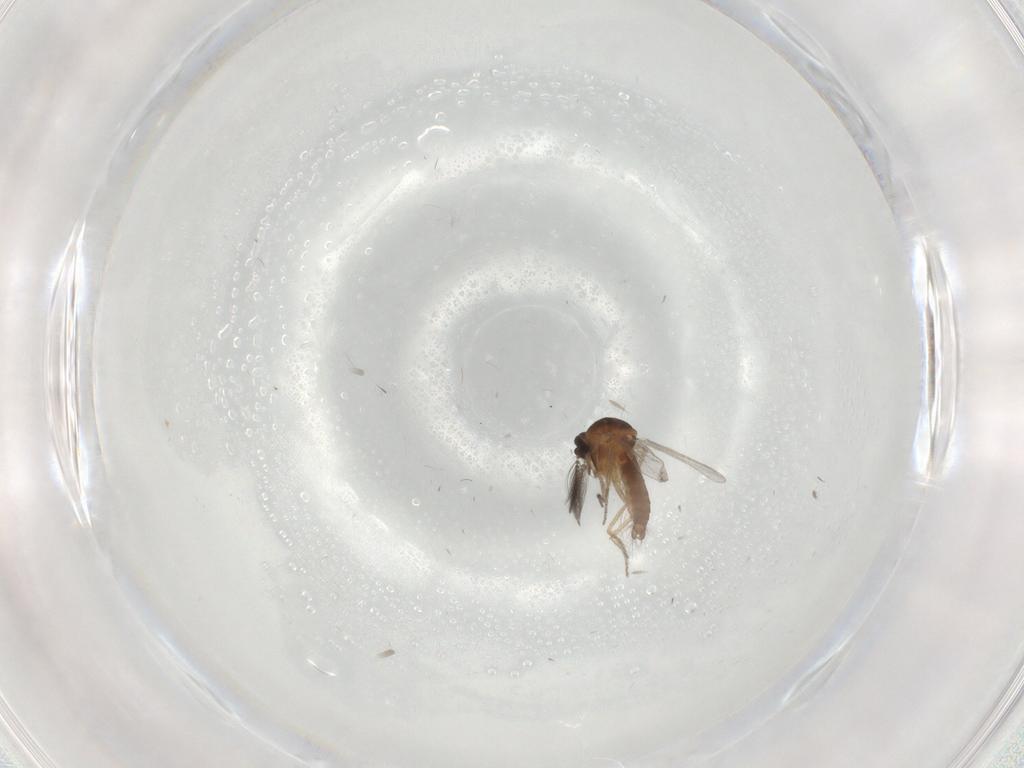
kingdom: Animalia
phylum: Arthropoda
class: Insecta
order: Diptera
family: Ceratopogonidae
